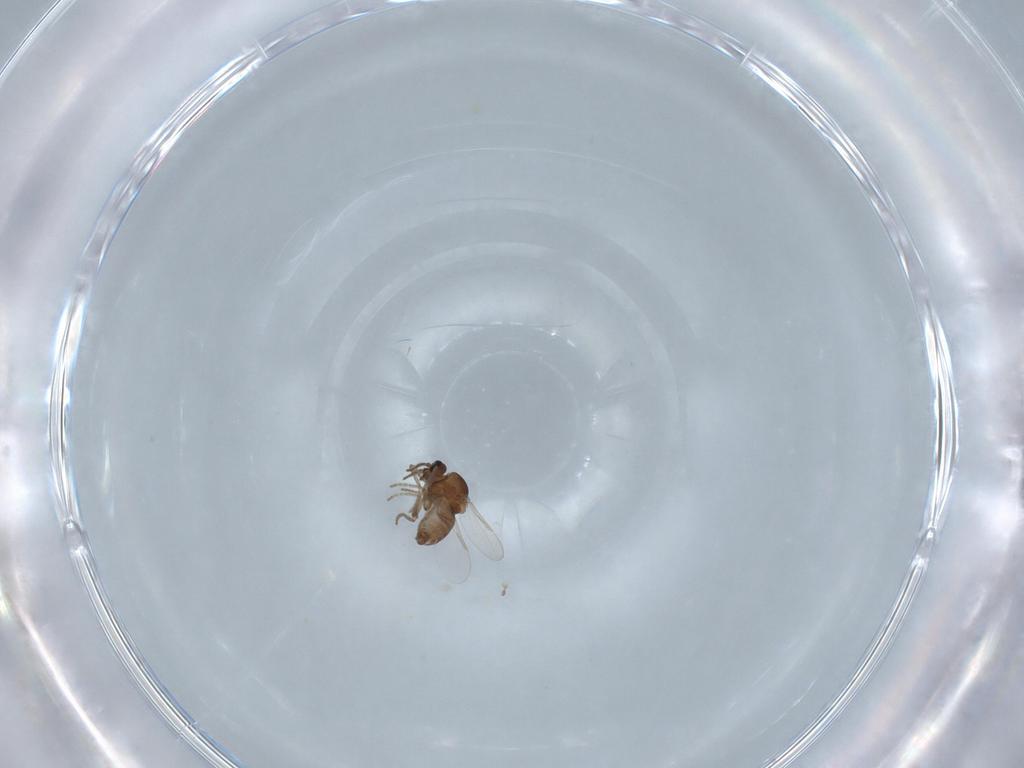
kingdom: Animalia
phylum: Arthropoda
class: Insecta
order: Diptera
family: Ceratopogonidae
